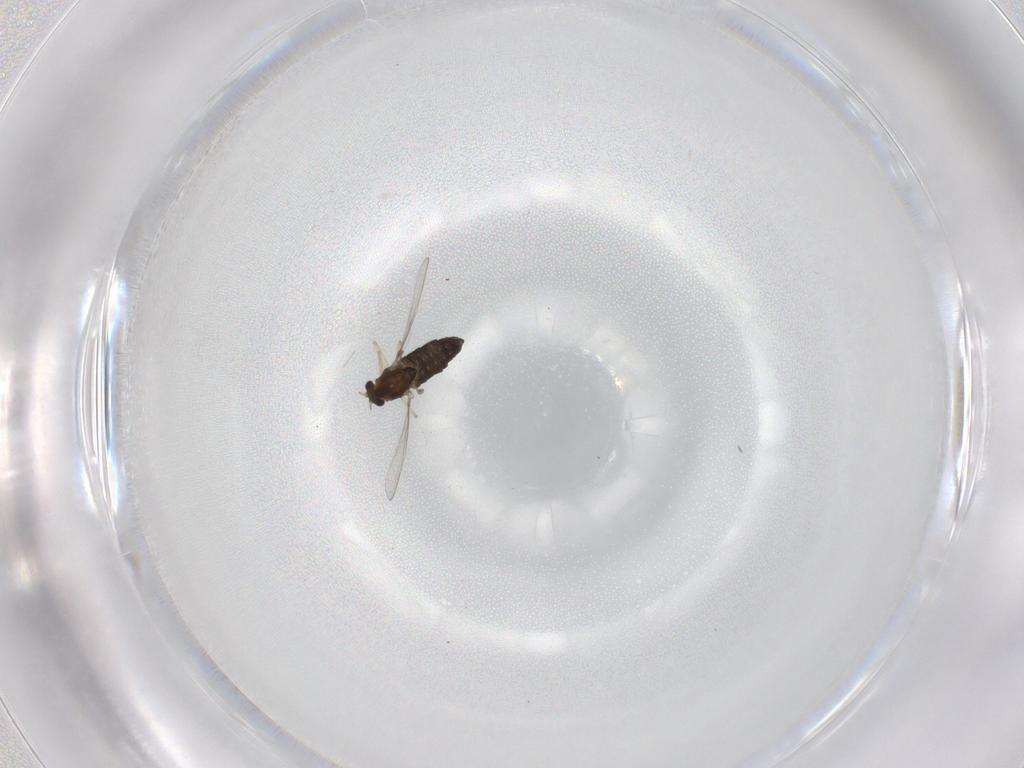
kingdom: Animalia
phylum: Arthropoda
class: Insecta
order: Diptera
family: Chironomidae
